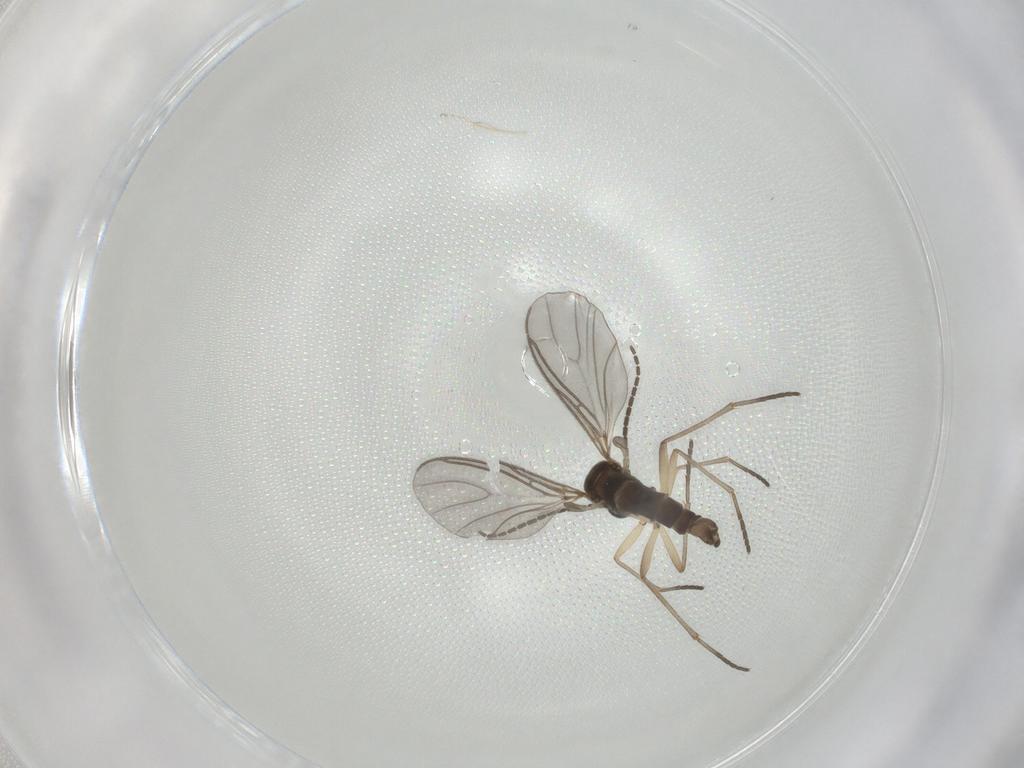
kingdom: Animalia
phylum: Arthropoda
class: Insecta
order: Diptera
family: Sciaridae
